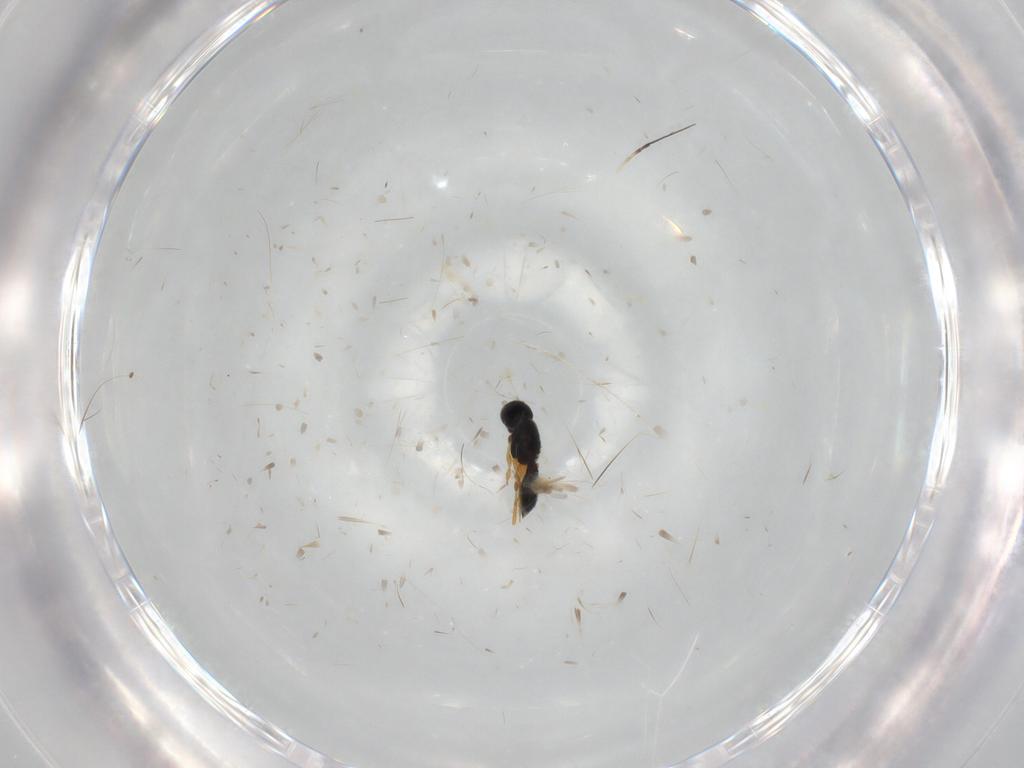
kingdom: Animalia
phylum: Arthropoda
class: Insecta
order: Hymenoptera
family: Scelionidae
